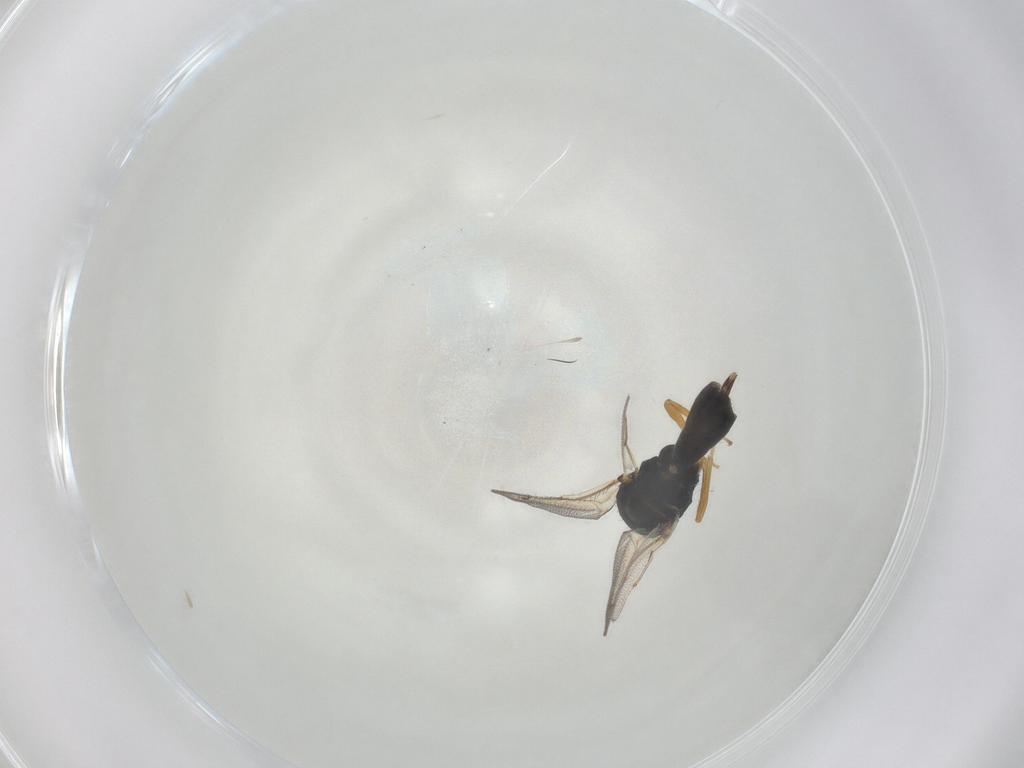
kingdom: Animalia
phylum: Arthropoda
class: Insecta
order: Hymenoptera
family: Pteromalidae
